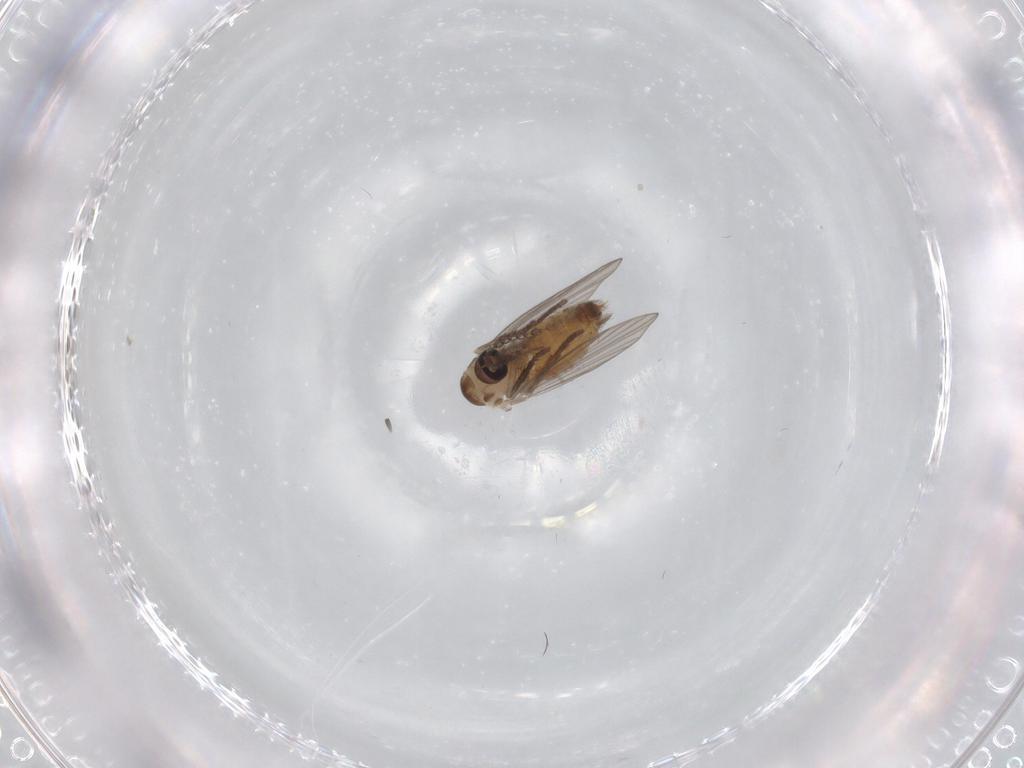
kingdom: Animalia
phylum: Arthropoda
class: Insecta
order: Diptera
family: Psychodidae
